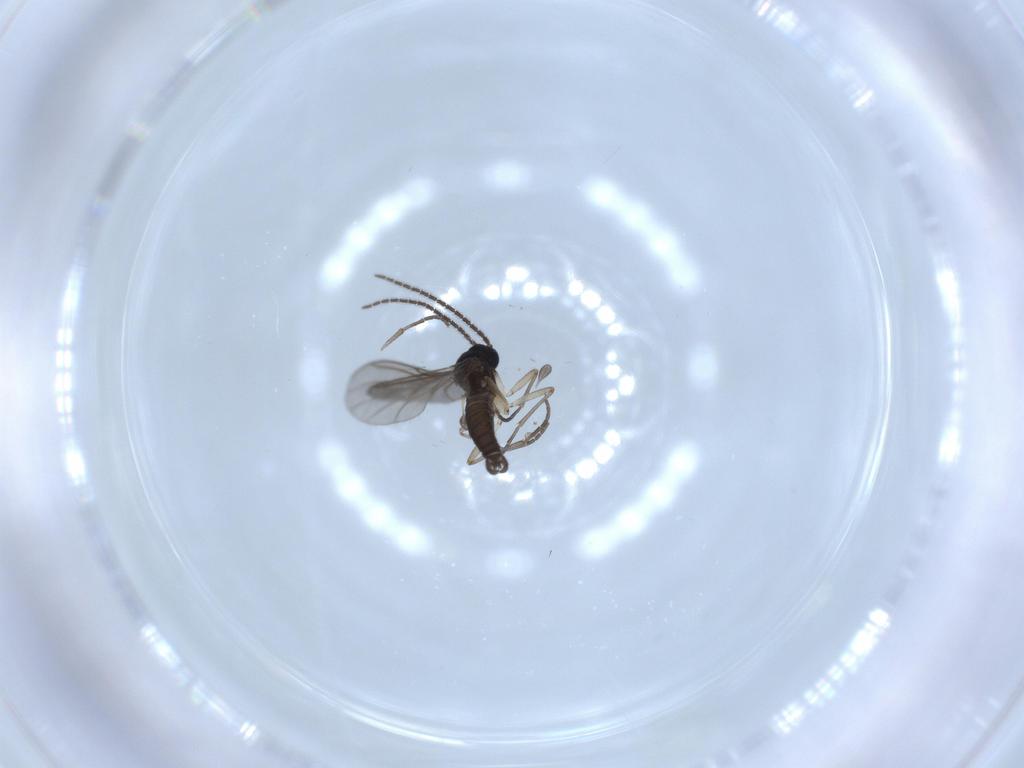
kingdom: Animalia
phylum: Arthropoda
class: Insecta
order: Diptera
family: Sciaridae
